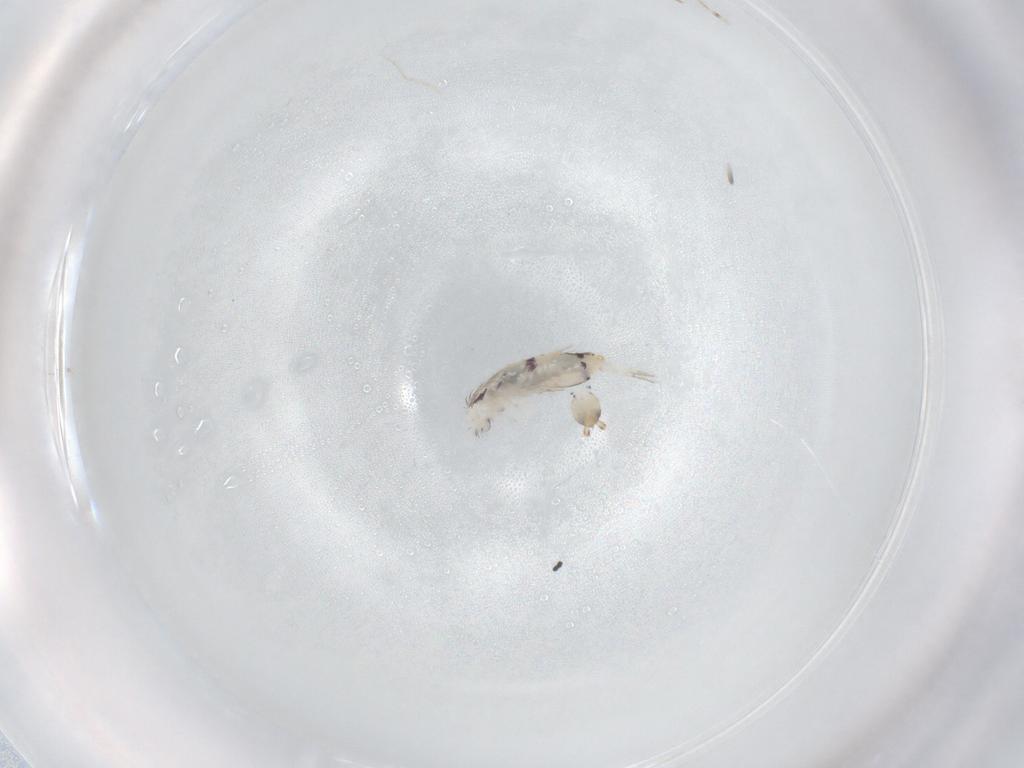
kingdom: Animalia
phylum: Arthropoda
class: Collembola
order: Entomobryomorpha
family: Entomobryidae
